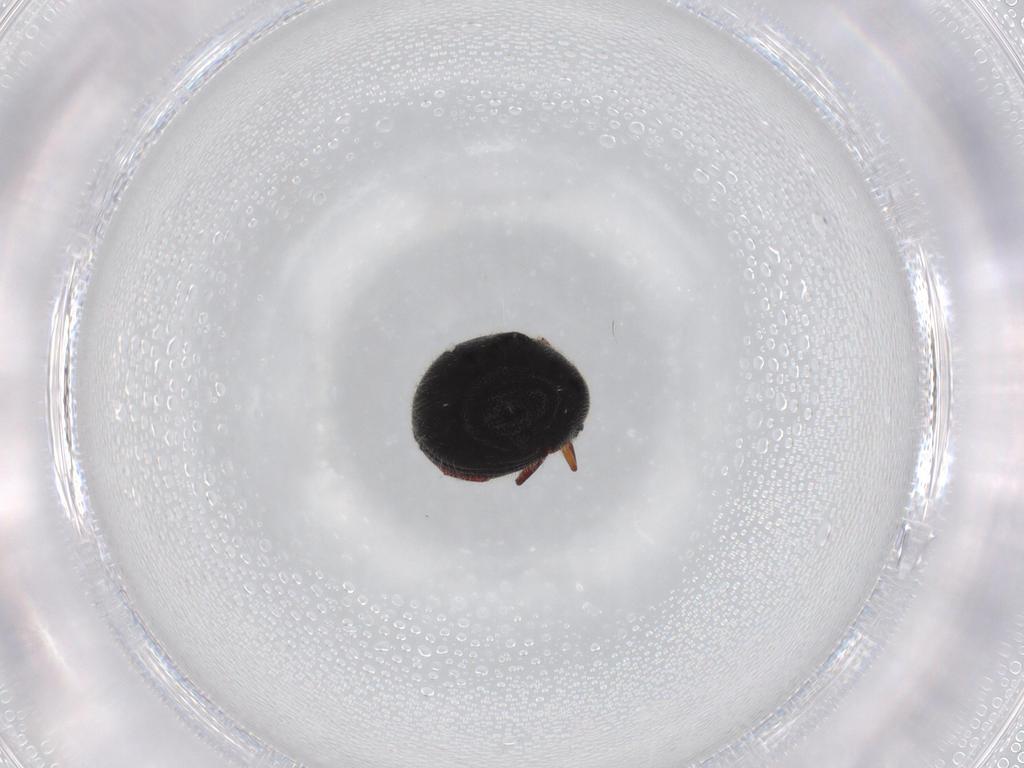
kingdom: Animalia
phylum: Arthropoda
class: Insecta
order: Coleoptera
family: Ptinidae
